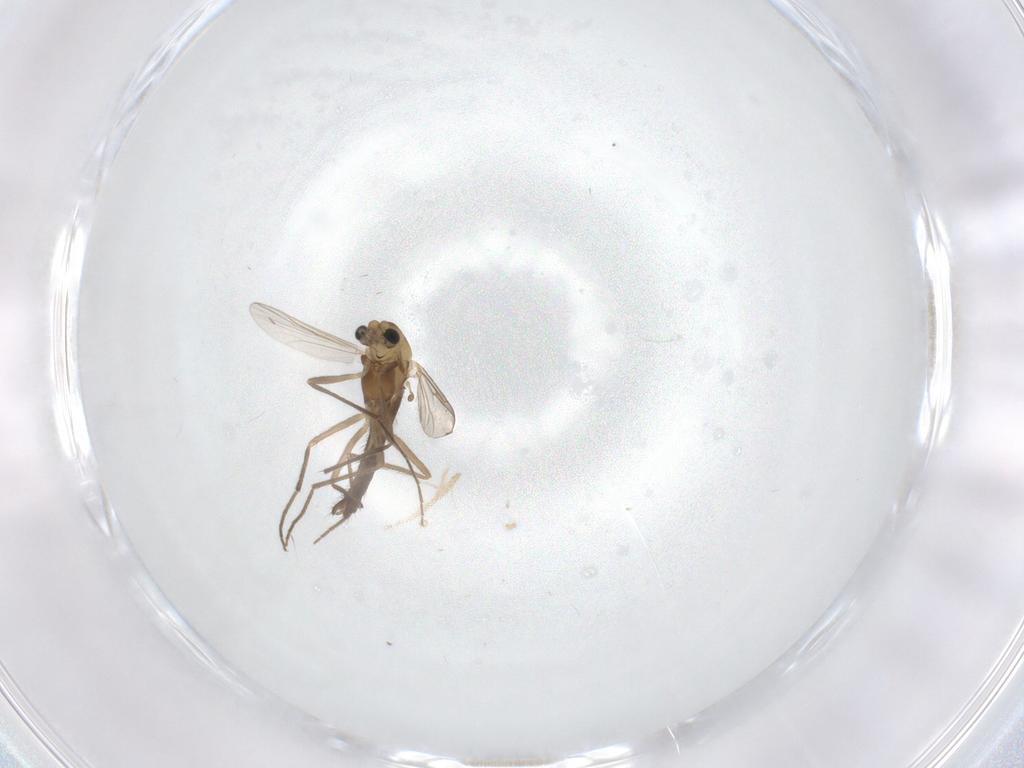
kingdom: Animalia
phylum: Arthropoda
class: Insecta
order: Diptera
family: Chironomidae
